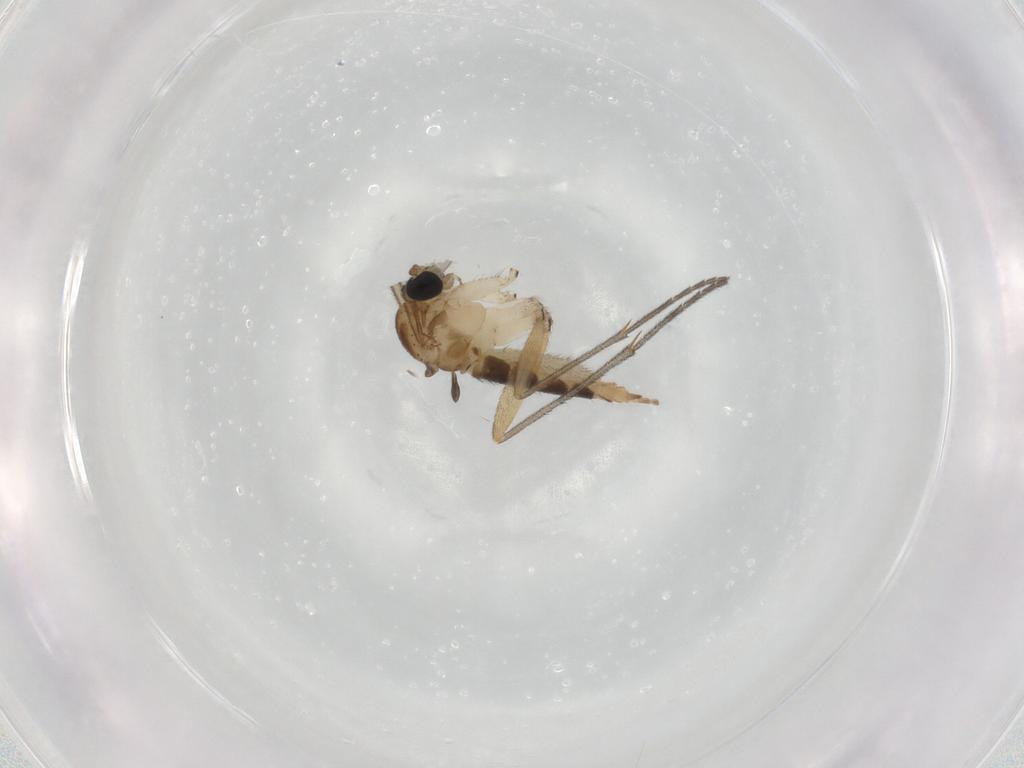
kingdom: Animalia
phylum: Arthropoda
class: Insecta
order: Diptera
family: Sciaridae
